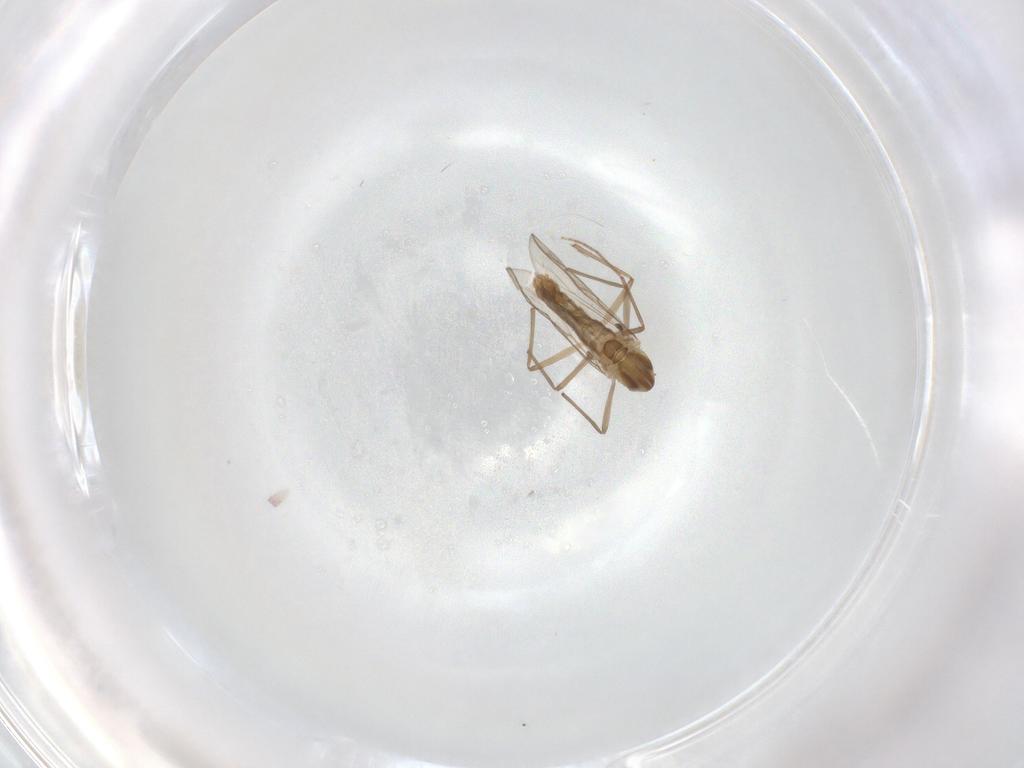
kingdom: Animalia
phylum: Arthropoda
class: Insecta
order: Diptera
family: Chironomidae
